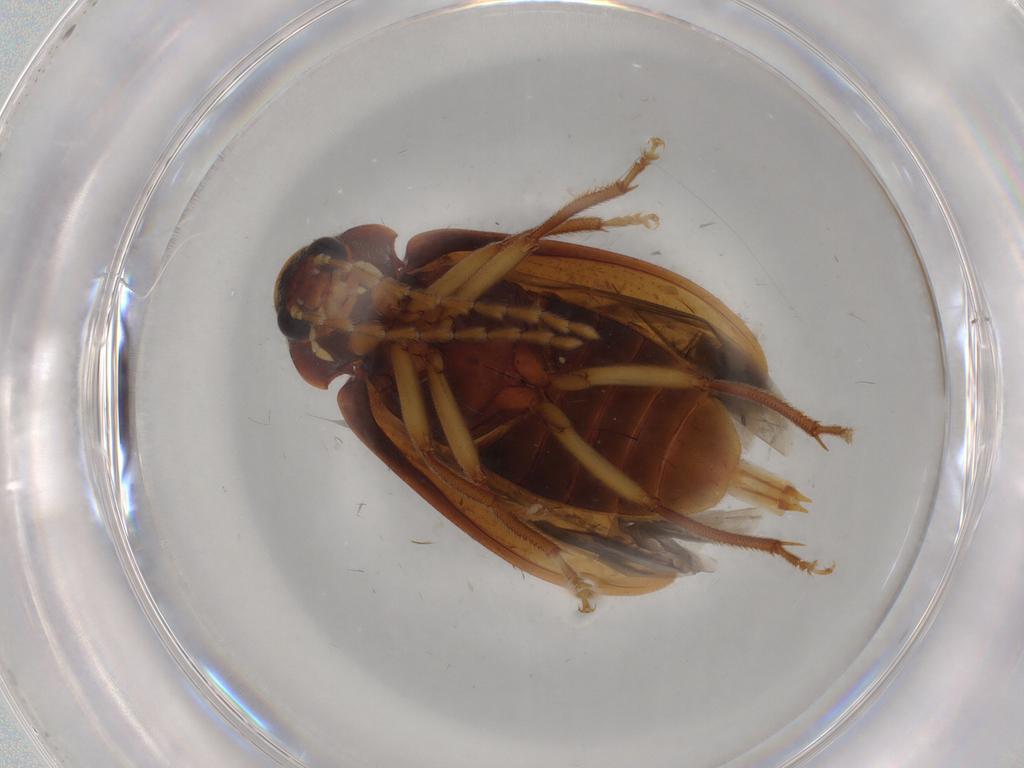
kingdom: Animalia
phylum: Arthropoda
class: Insecta
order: Coleoptera
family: Ptilodactylidae
